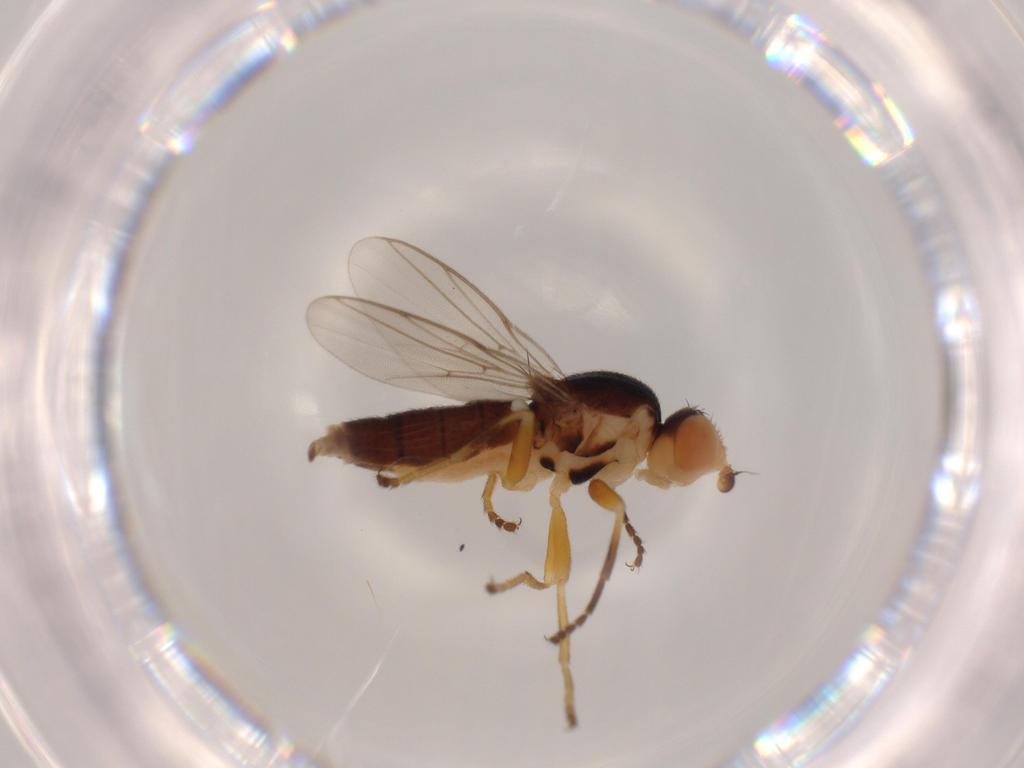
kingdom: Animalia
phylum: Arthropoda
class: Insecta
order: Diptera
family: Chloropidae
